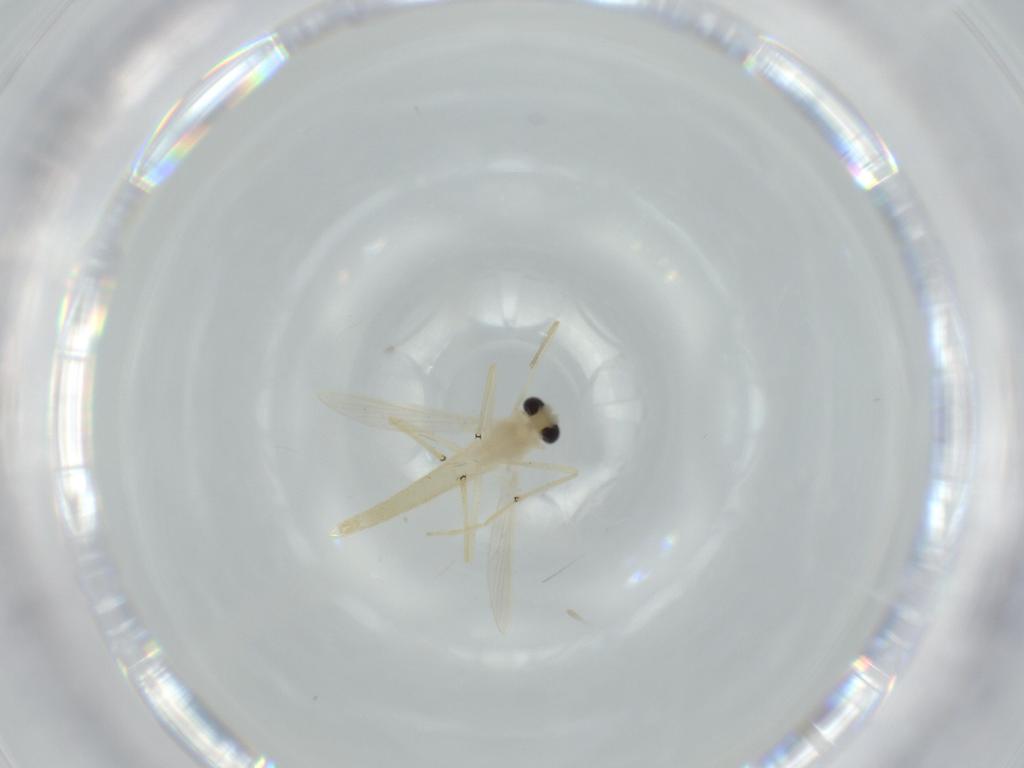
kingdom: Animalia
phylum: Arthropoda
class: Insecta
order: Diptera
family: Chironomidae
